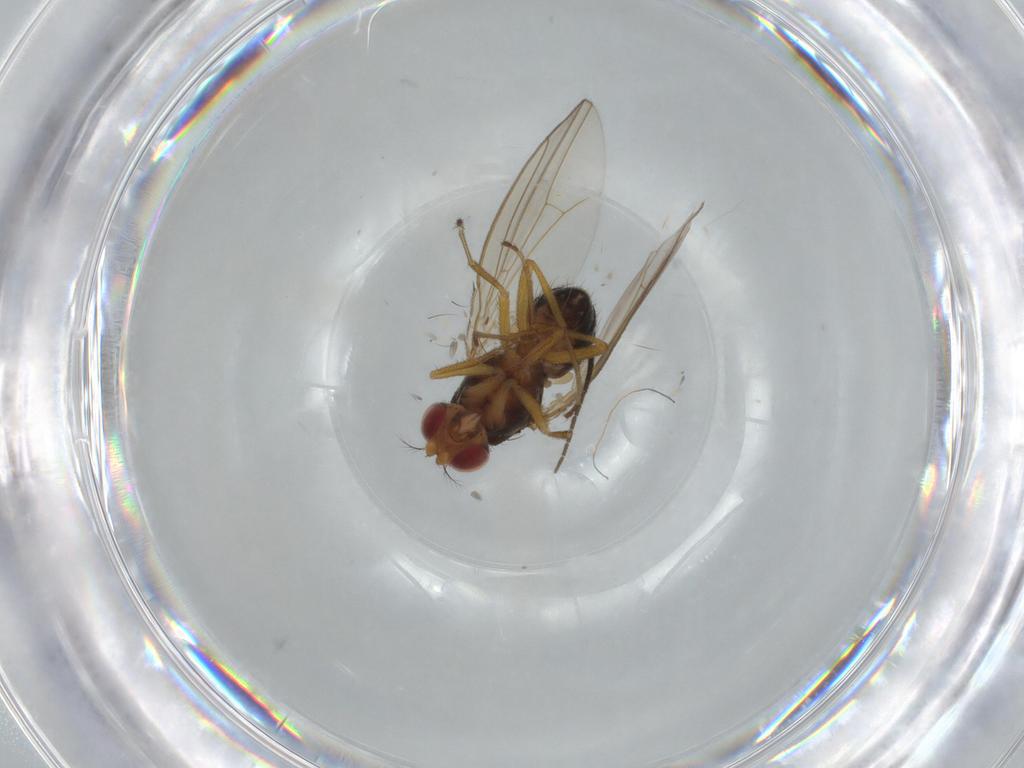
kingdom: Animalia
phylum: Arthropoda
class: Insecta
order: Diptera
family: Drosophilidae
